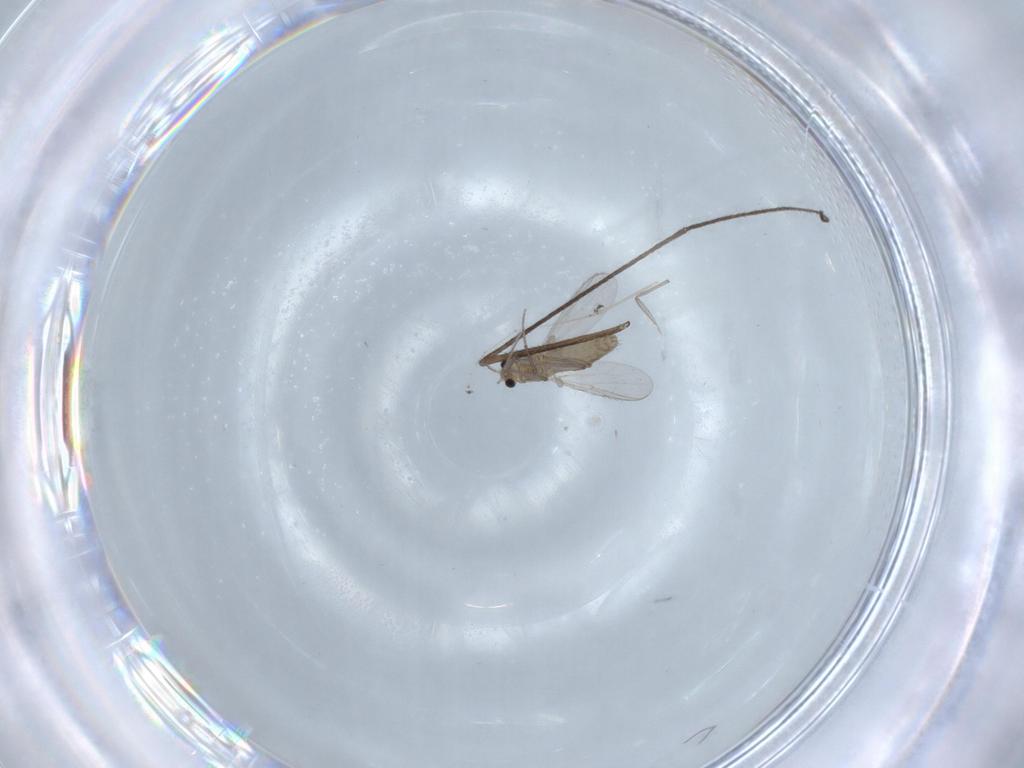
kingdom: Animalia
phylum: Arthropoda
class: Insecta
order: Diptera
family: Chironomidae
